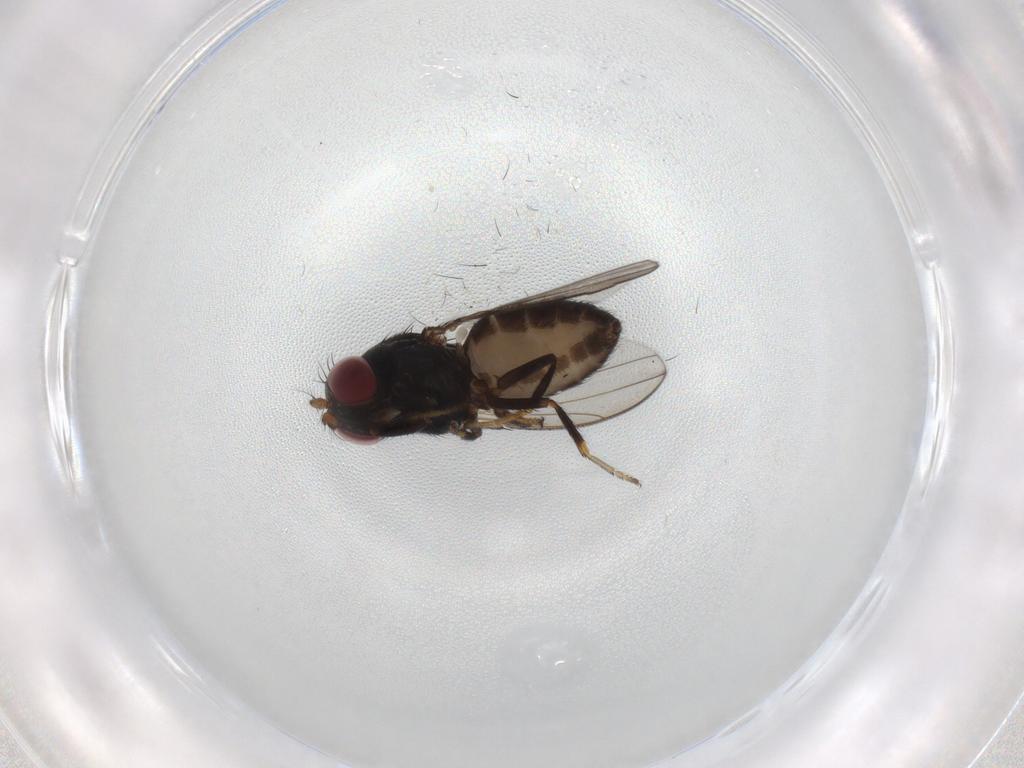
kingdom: Animalia
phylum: Arthropoda
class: Insecta
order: Diptera
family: Ephydridae
